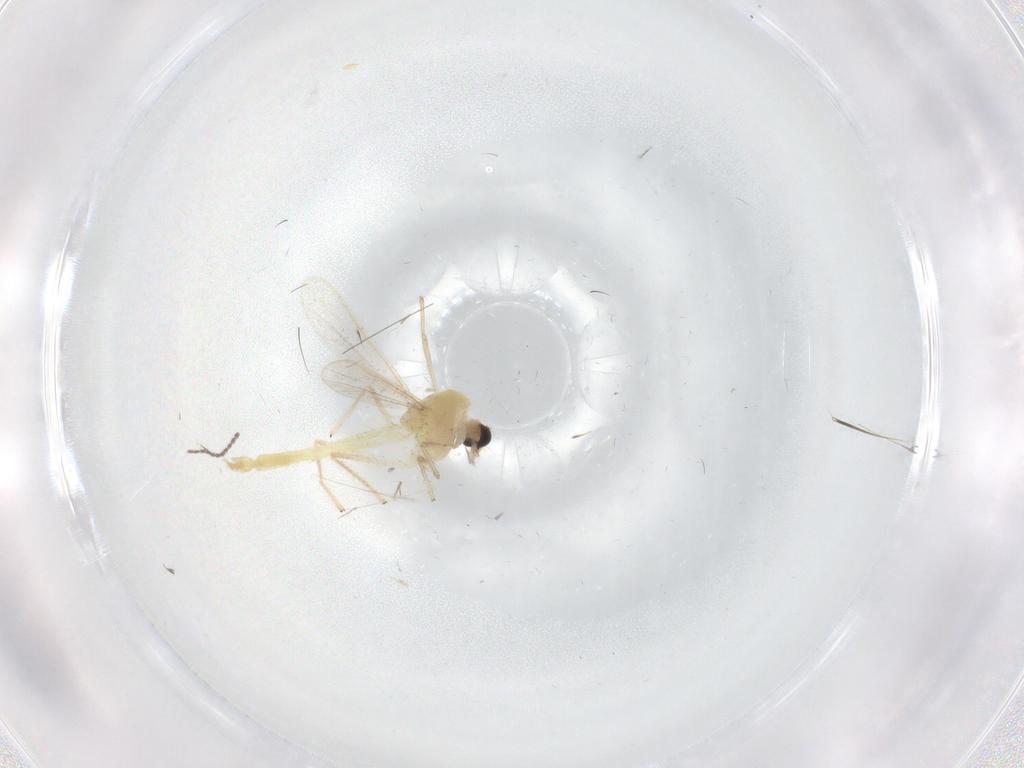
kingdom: Animalia
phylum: Arthropoda
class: Insecta
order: Diptera
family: Chironomidae
